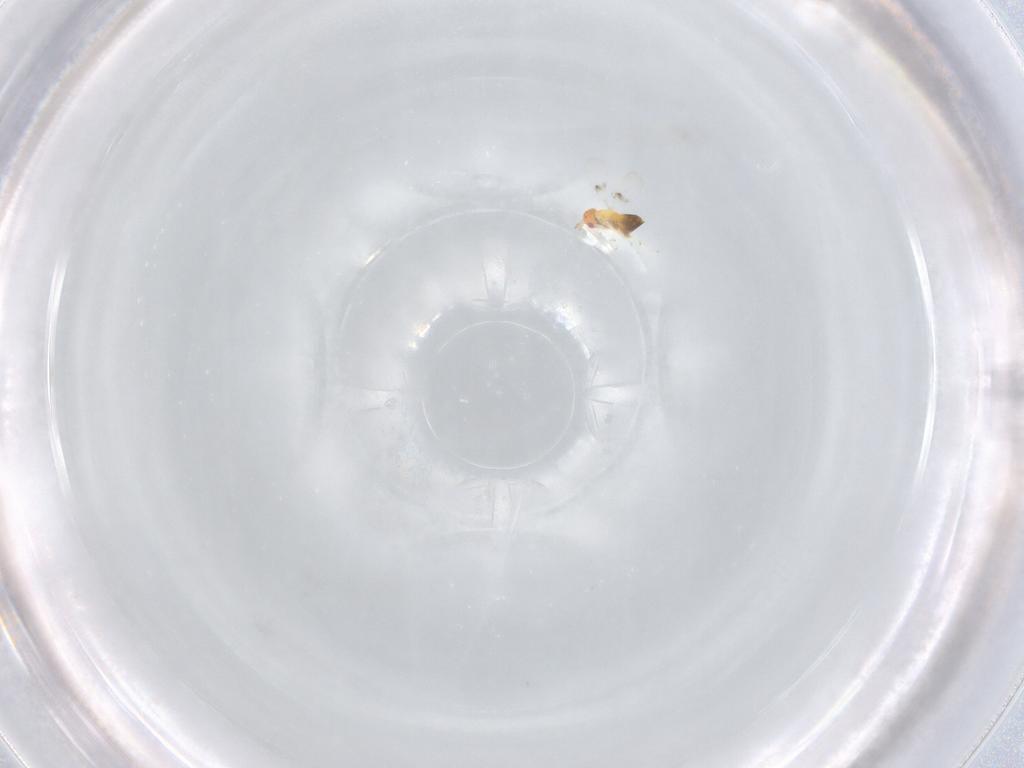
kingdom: Animalia
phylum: Arthropoda
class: Insecta
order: Hymenoptera
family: Trichogrammatidae
